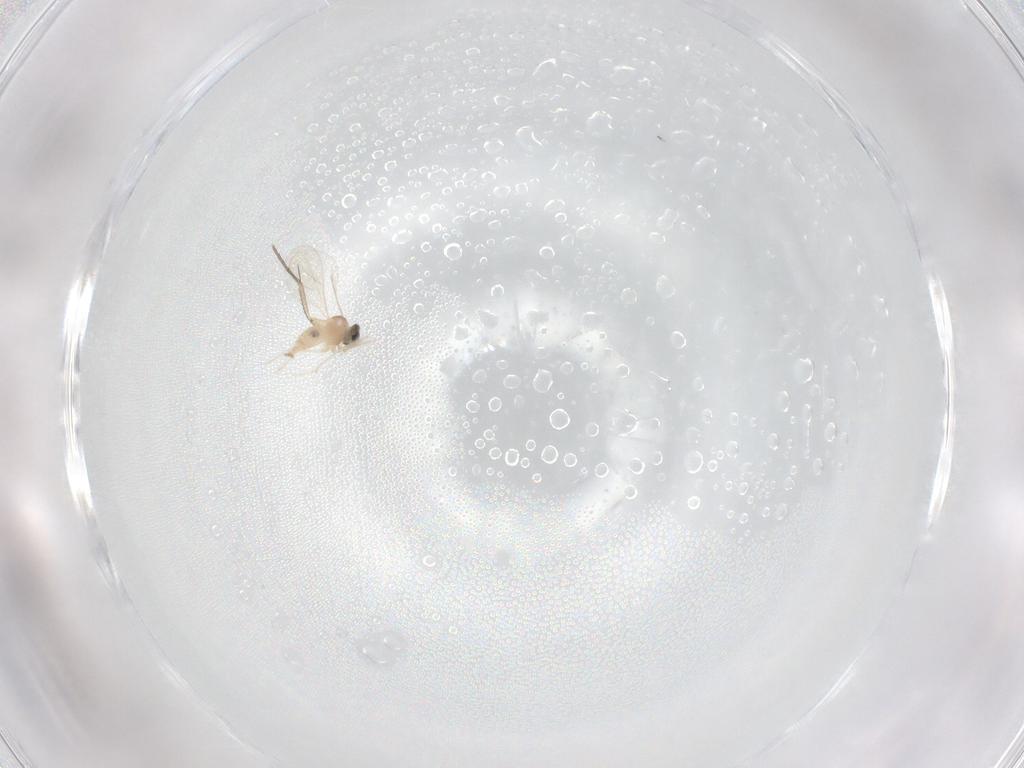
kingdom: Animalia
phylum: Arthropoda
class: Insecta
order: Diptera
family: Cecidomyiidae
